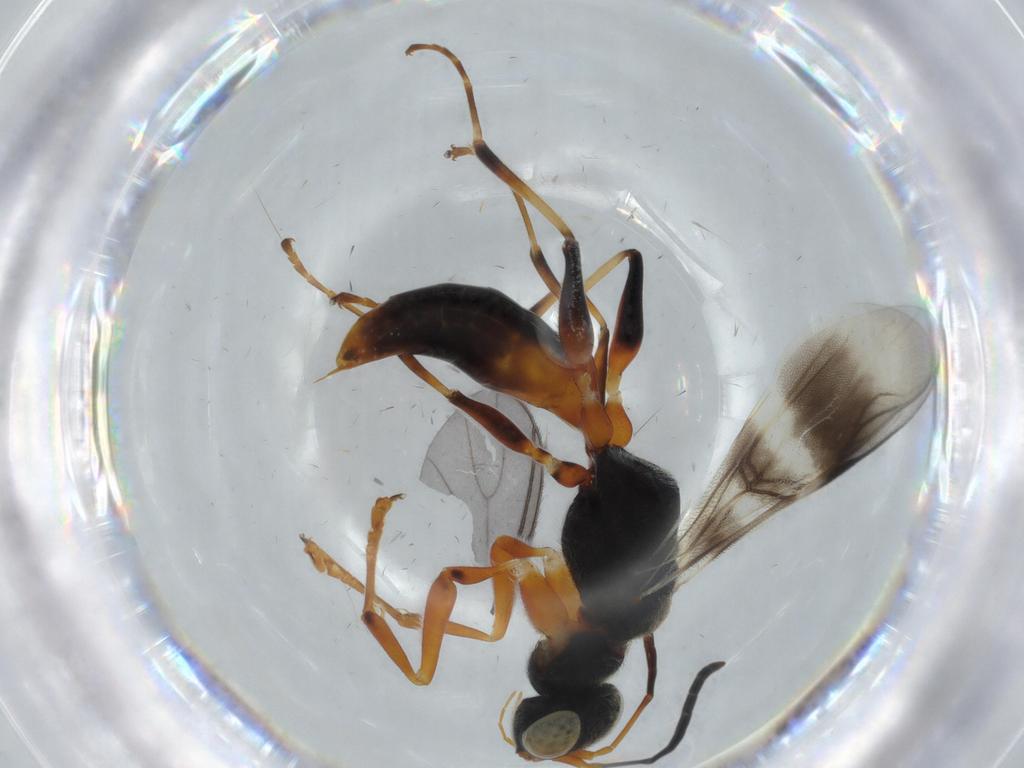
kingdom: Animalia
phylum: Arthropoda
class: Insecta
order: Hymenoptera
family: Dryinidae
